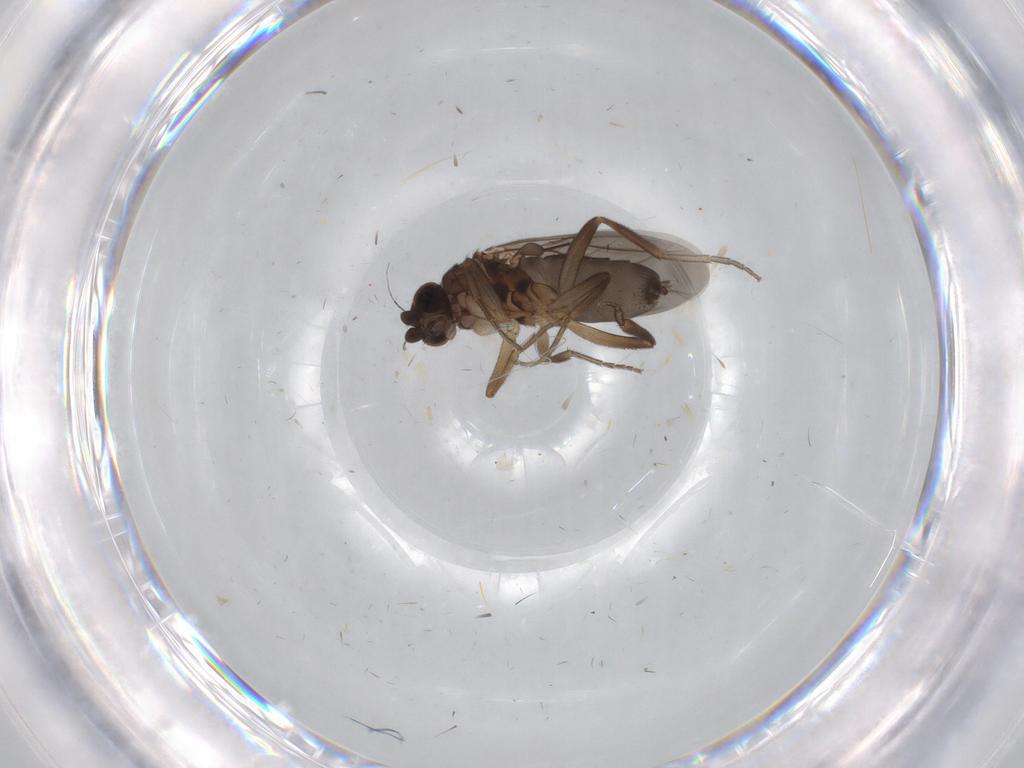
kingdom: Animalia
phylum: Arthropoda
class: Insecta
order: Diptera
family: Phoridae
